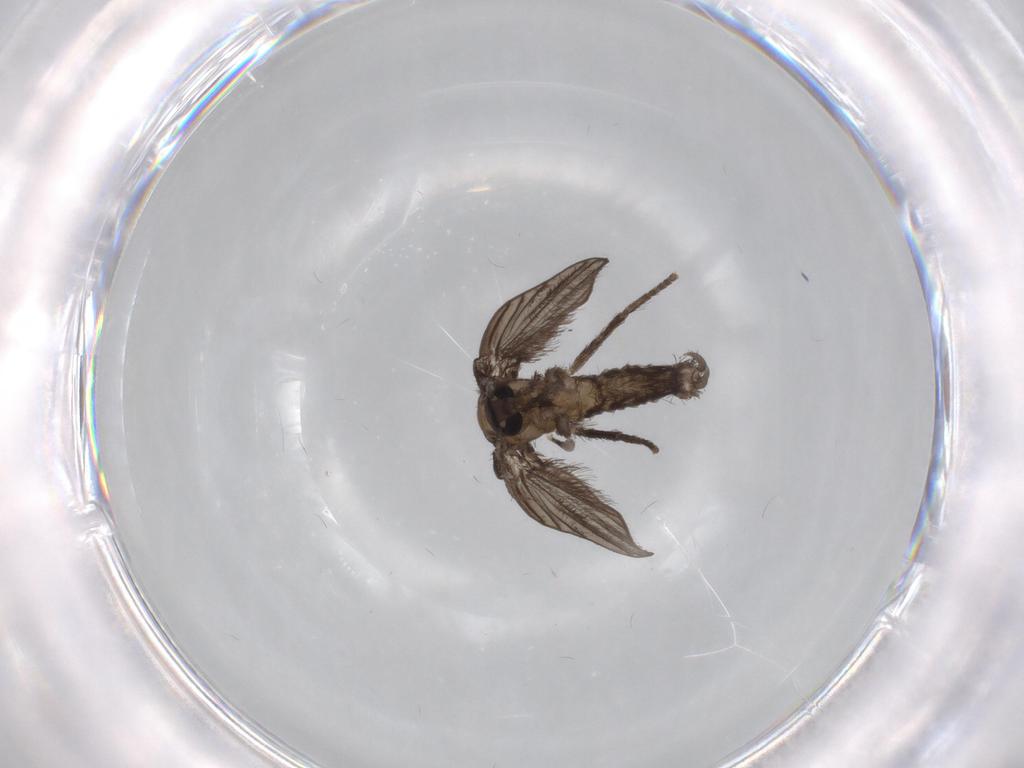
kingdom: Animalia
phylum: Arthropoda
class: Insecta
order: Diptera
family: Psychodidae
